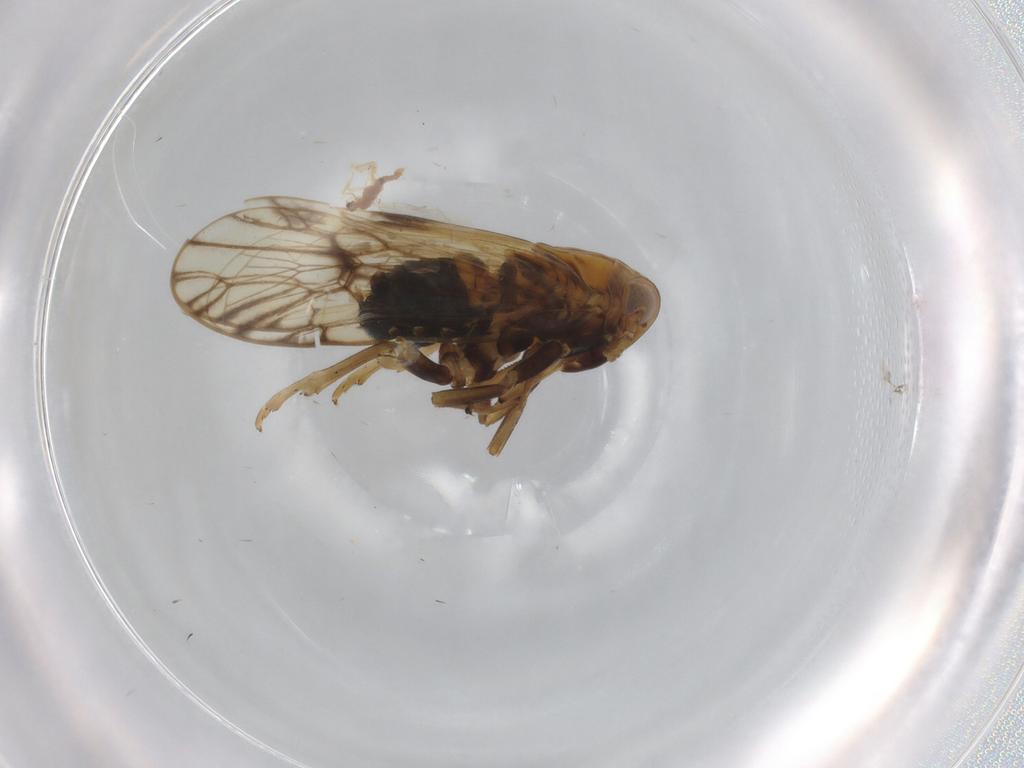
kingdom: Animalia
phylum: Arthropoda
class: Insecta
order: Hemiptera
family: Delphacidae
